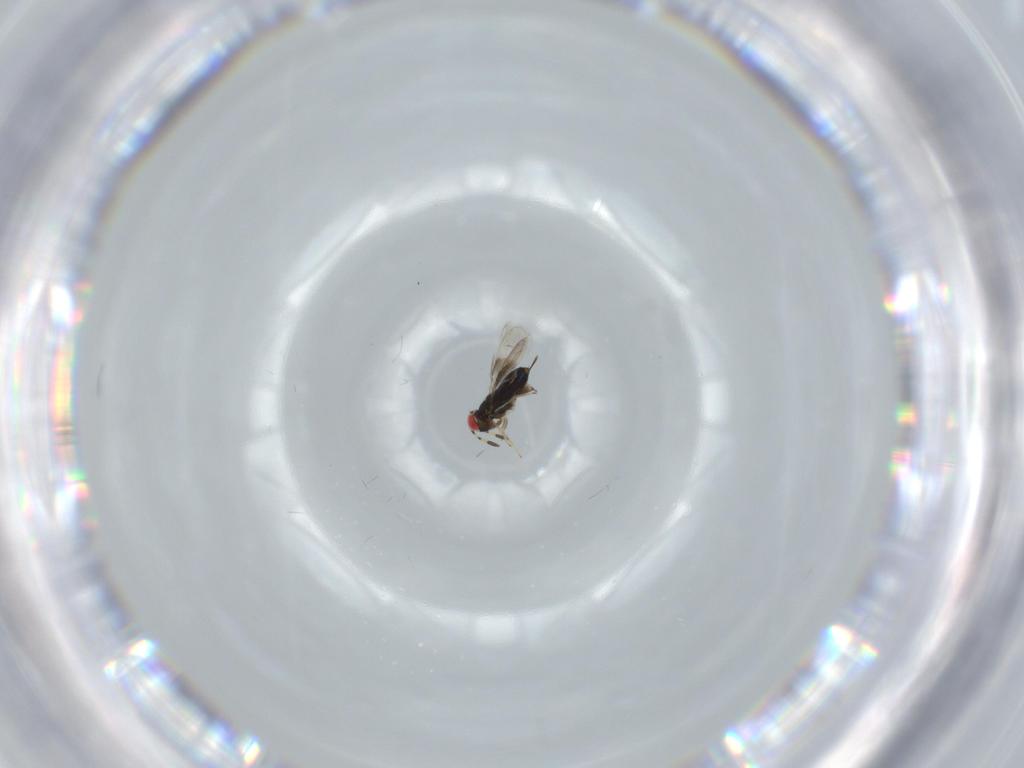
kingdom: Animalia
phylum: Arthropoda
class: Insecta
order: Hymenoptera
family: Azotidae
